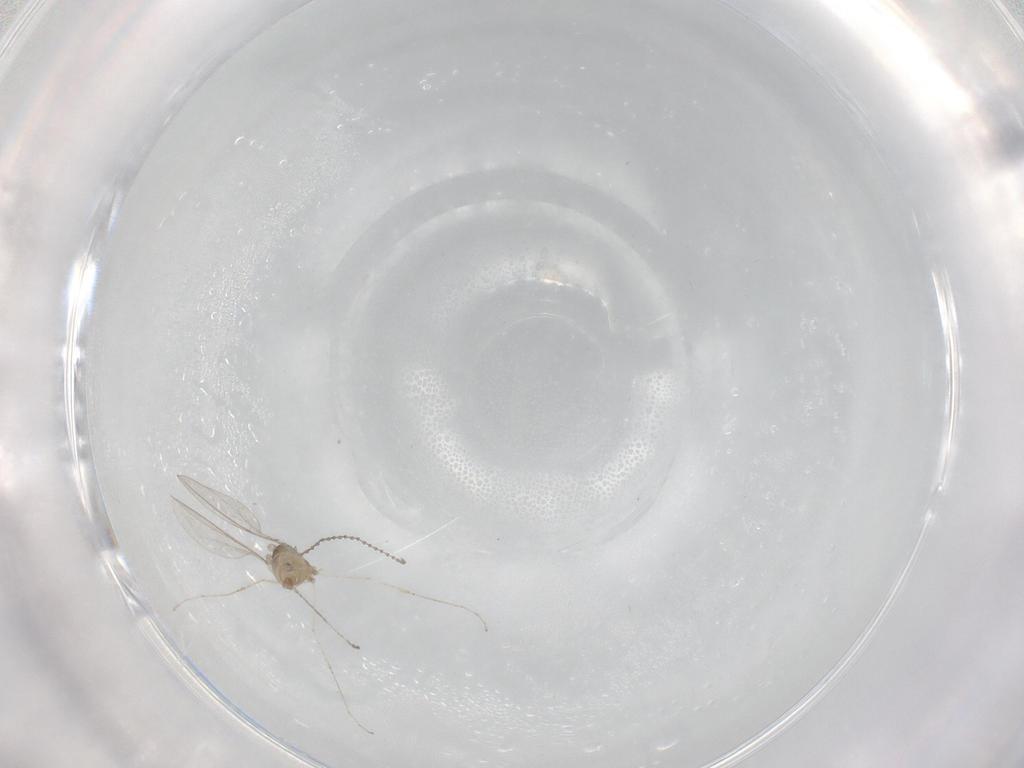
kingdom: Animalia
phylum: Arthropoda
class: Insecta
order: Diptera
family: Cecidomyiidae
